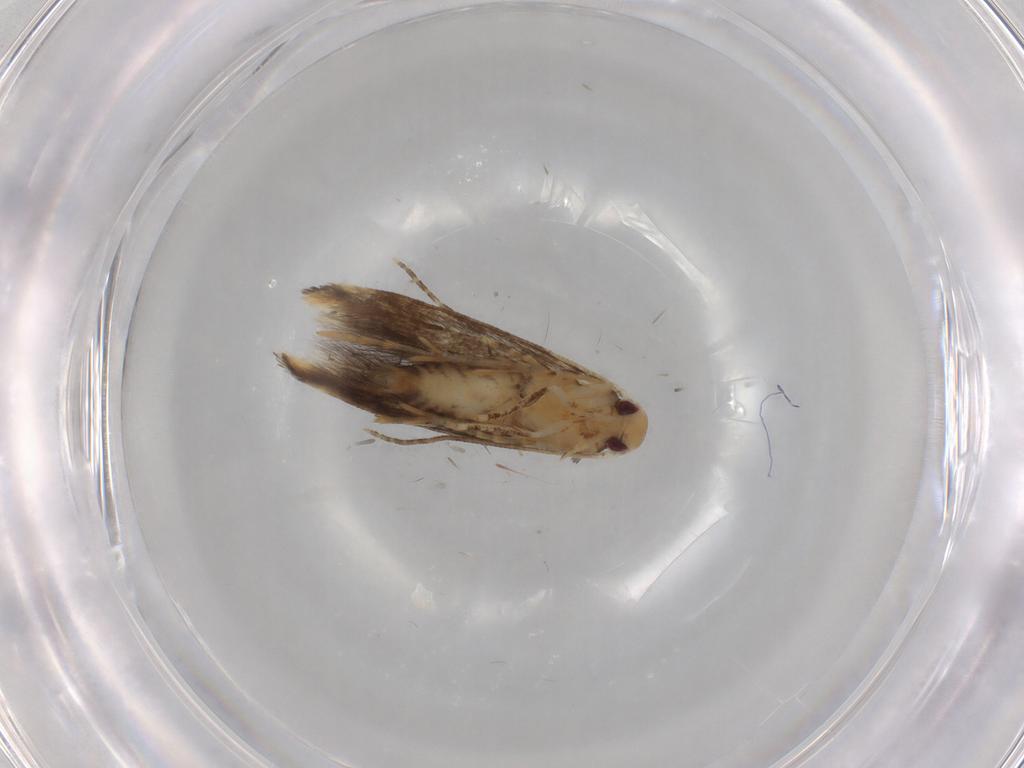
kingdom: Animalia
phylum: Arthropoda
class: Insecta
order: Lepidoptera
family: Momphidae
